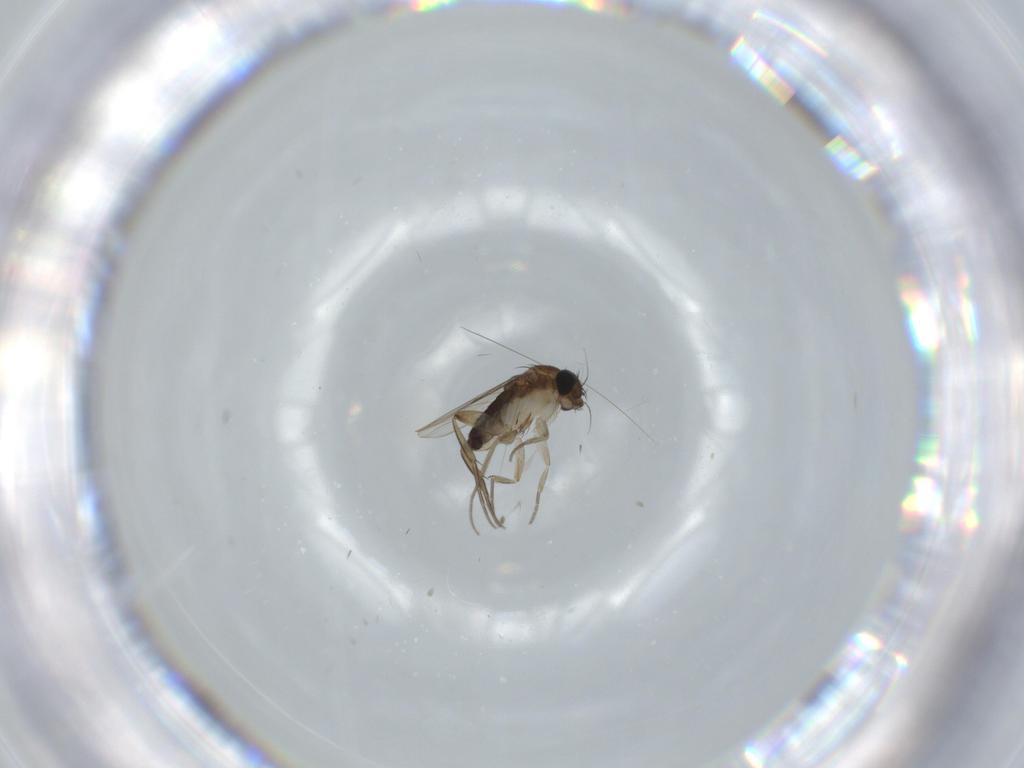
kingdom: Animalia
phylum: Arthropoda
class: Insecta
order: Diptera
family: Phoridae
